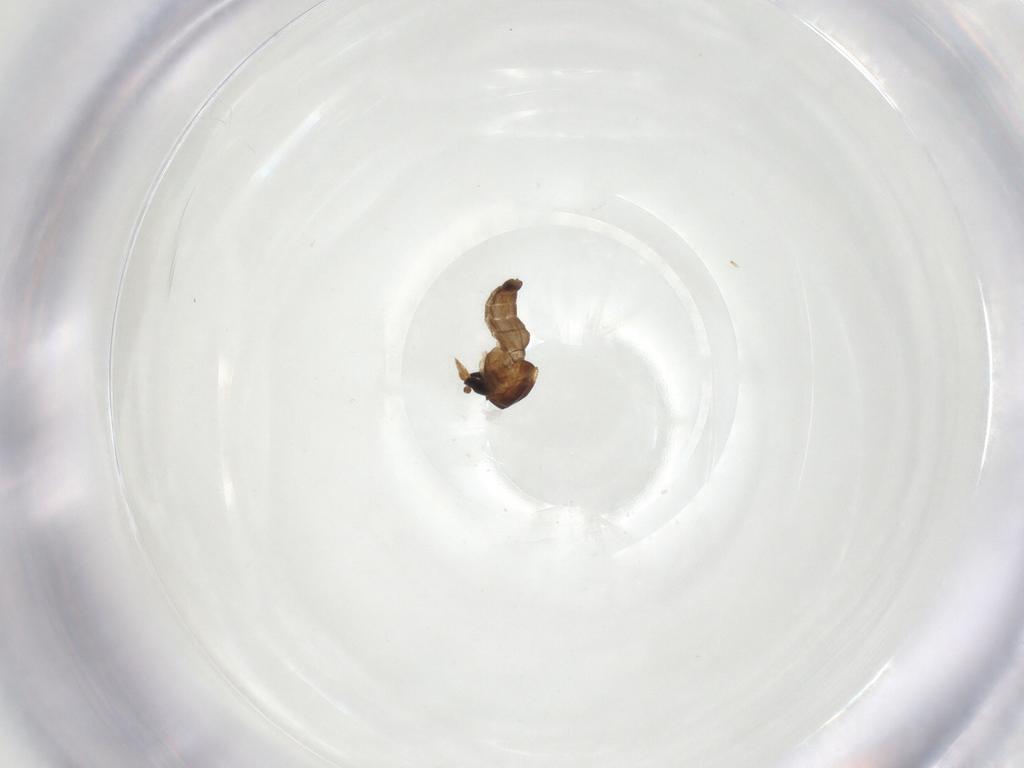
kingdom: Animalia
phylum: Arthropoda
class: Insecta
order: Diptera
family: Ceratopogonidae
